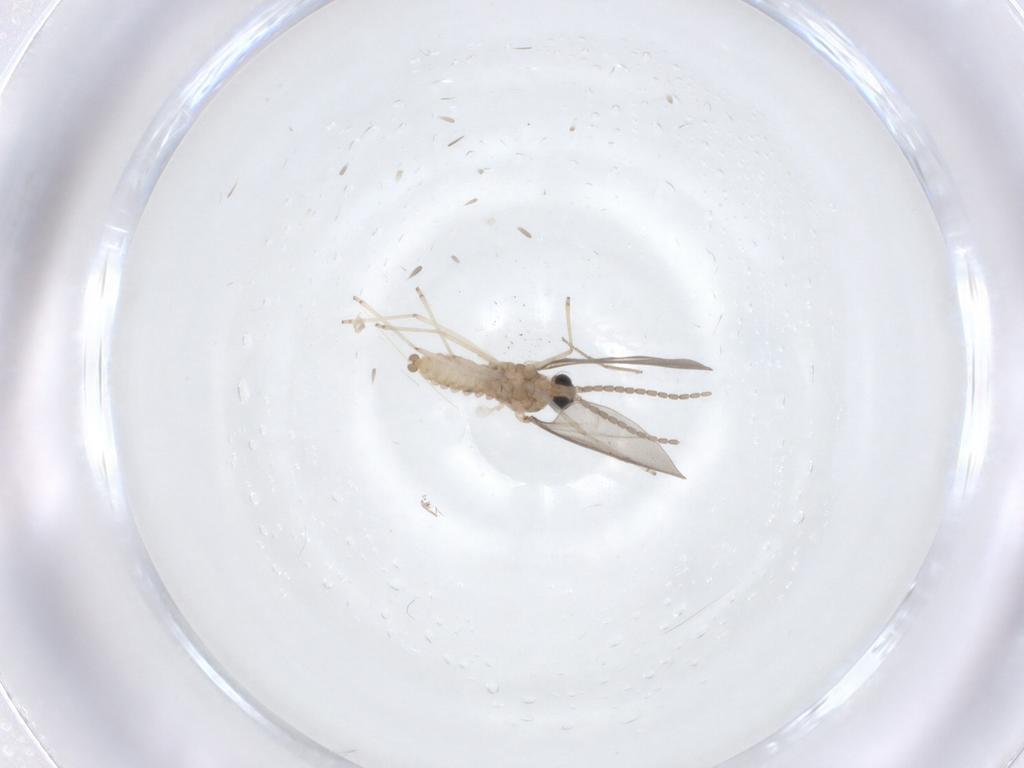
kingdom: Animalia
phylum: Arthropoda
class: Insecta
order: Diptera
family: Cecidomyiidae
